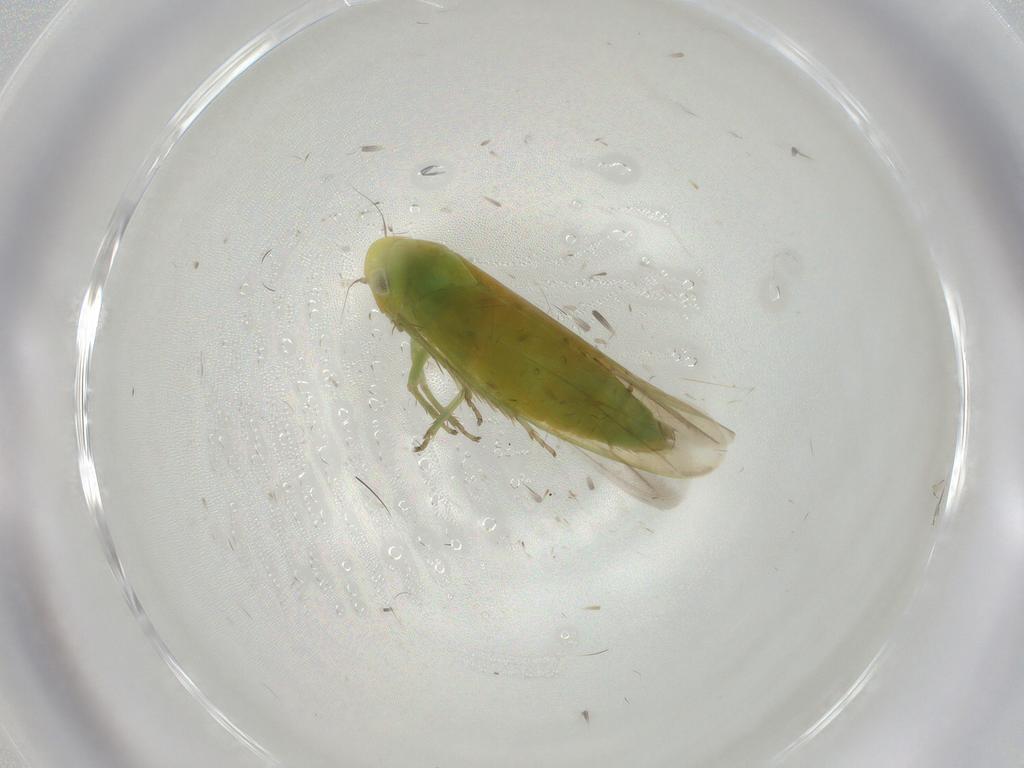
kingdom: Animalia
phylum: Arthropoda
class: Insecta
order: Hemiptera
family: Cicadellidae
